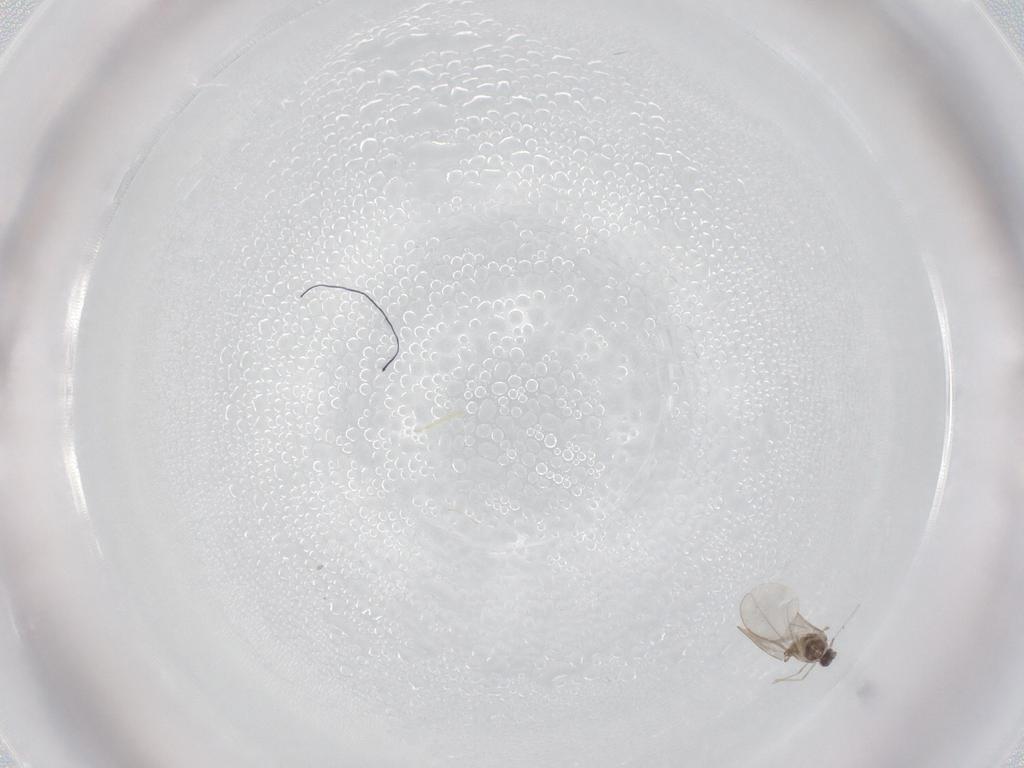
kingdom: Animalia
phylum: Arthropoda
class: Insecta
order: Diptera
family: Cecidomyiidae
